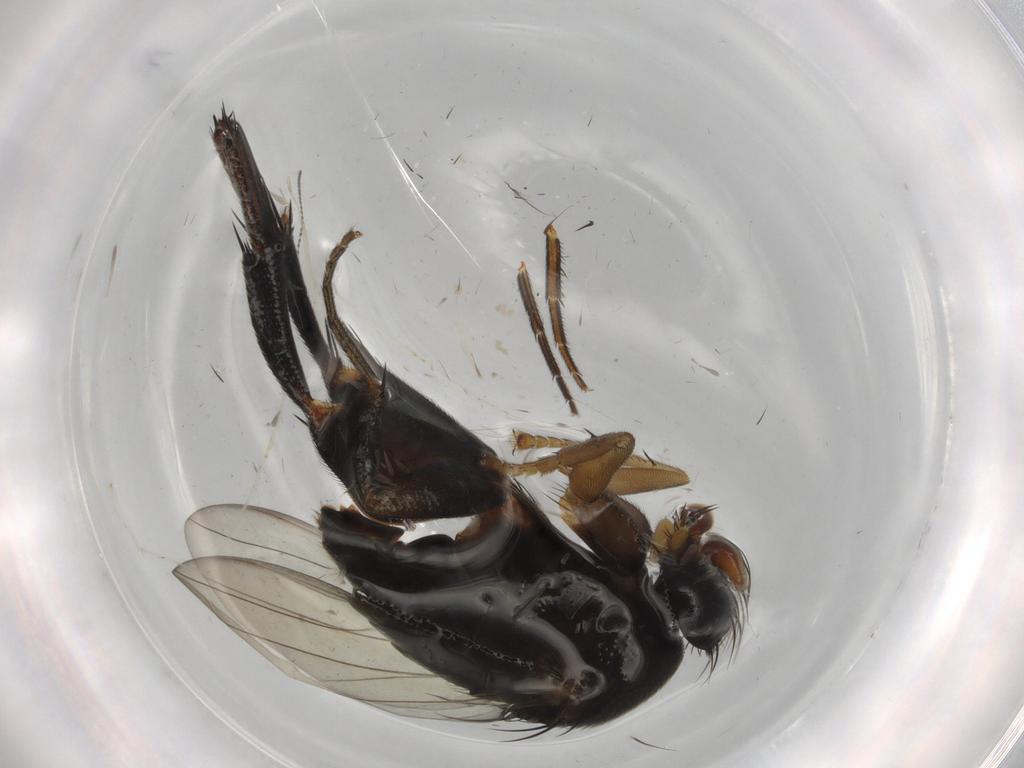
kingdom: Animalia
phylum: Arthropoda
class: Insecta
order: Diptera
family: Phoridae
